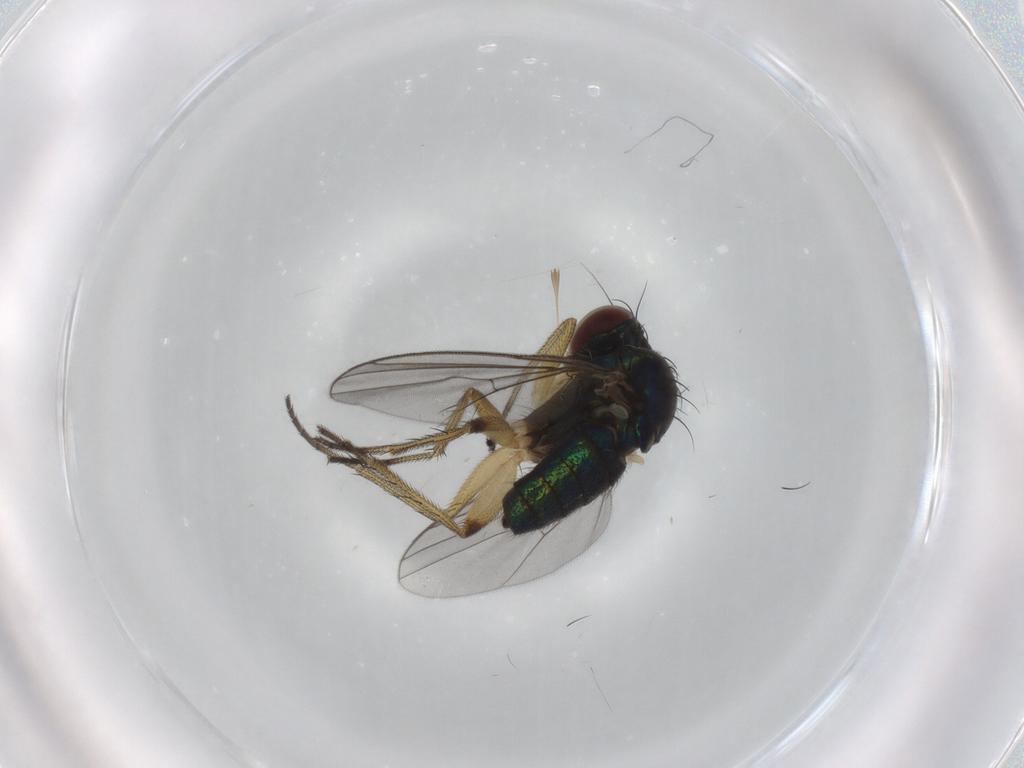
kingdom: Animalia
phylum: Arthropoda
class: Insecta
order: Diptera
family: Dolichopodidae
